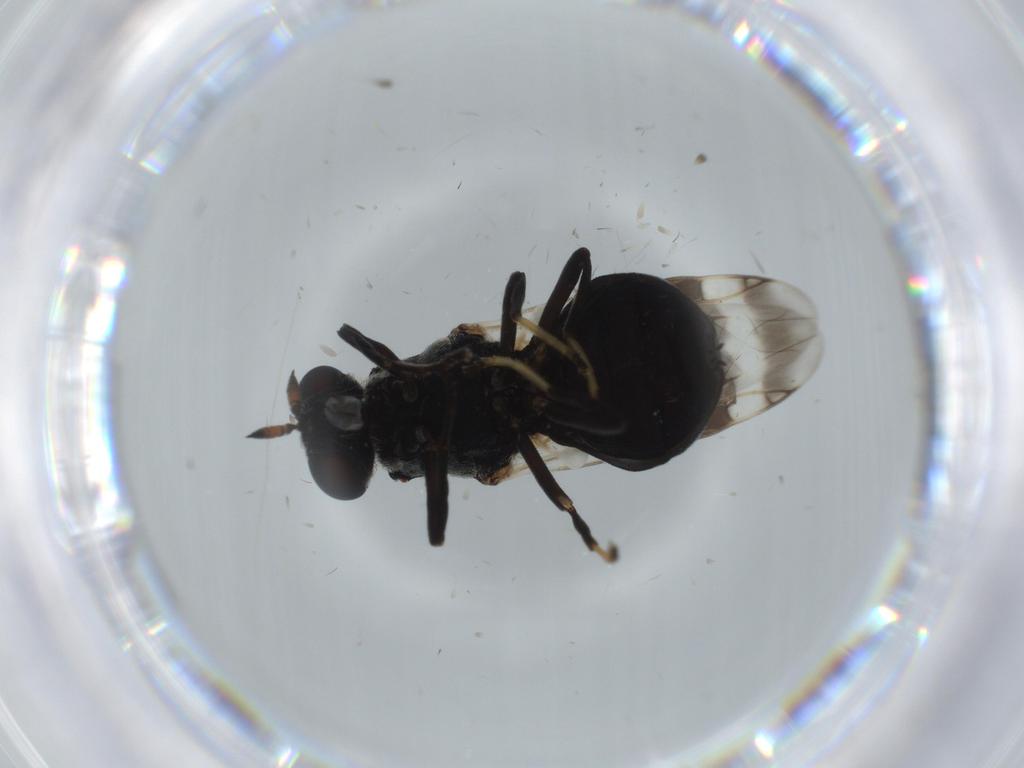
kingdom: Animalia
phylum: Arthropoda
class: Insecta
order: Diptera
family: Stratiomyidae
